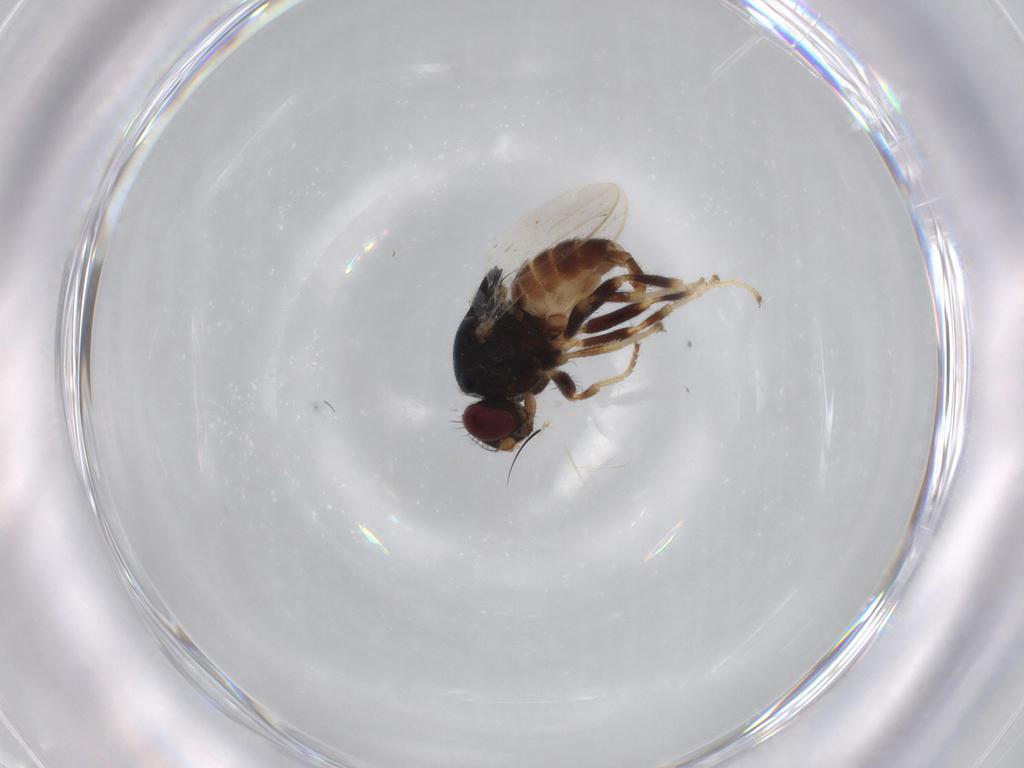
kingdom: Animalia
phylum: Arthropoda
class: Insecta
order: Diptera
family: Chloropidae
